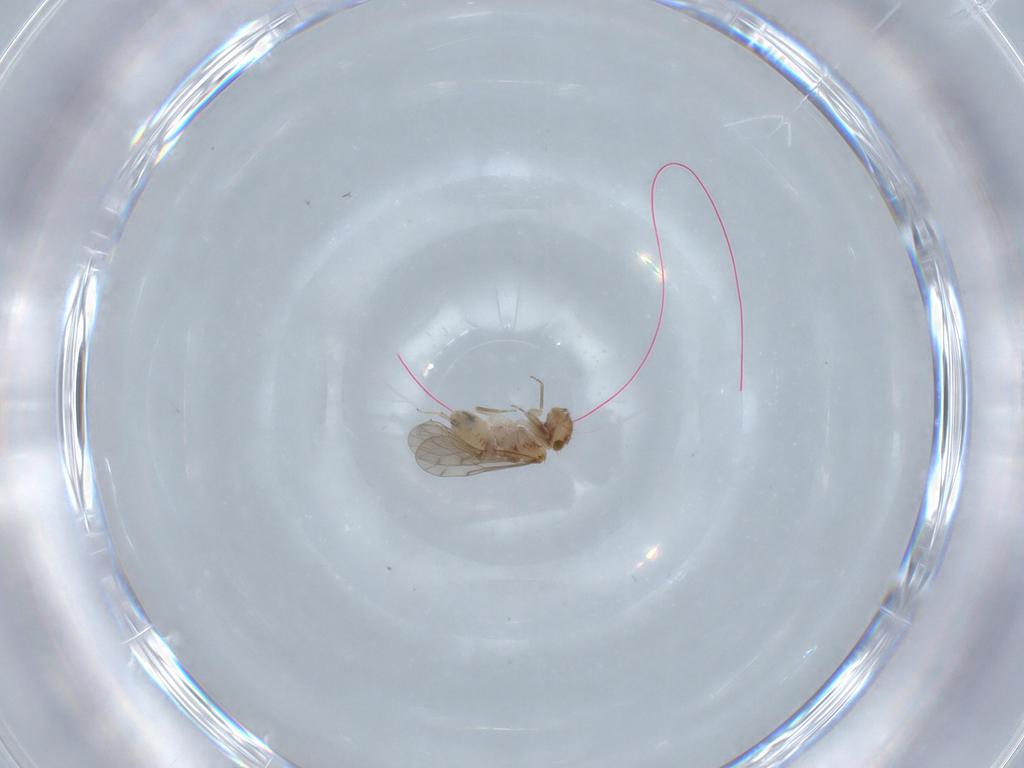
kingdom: Animalia
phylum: Arthropoda
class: Insecta
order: Psocodea
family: Ectopsocidae
